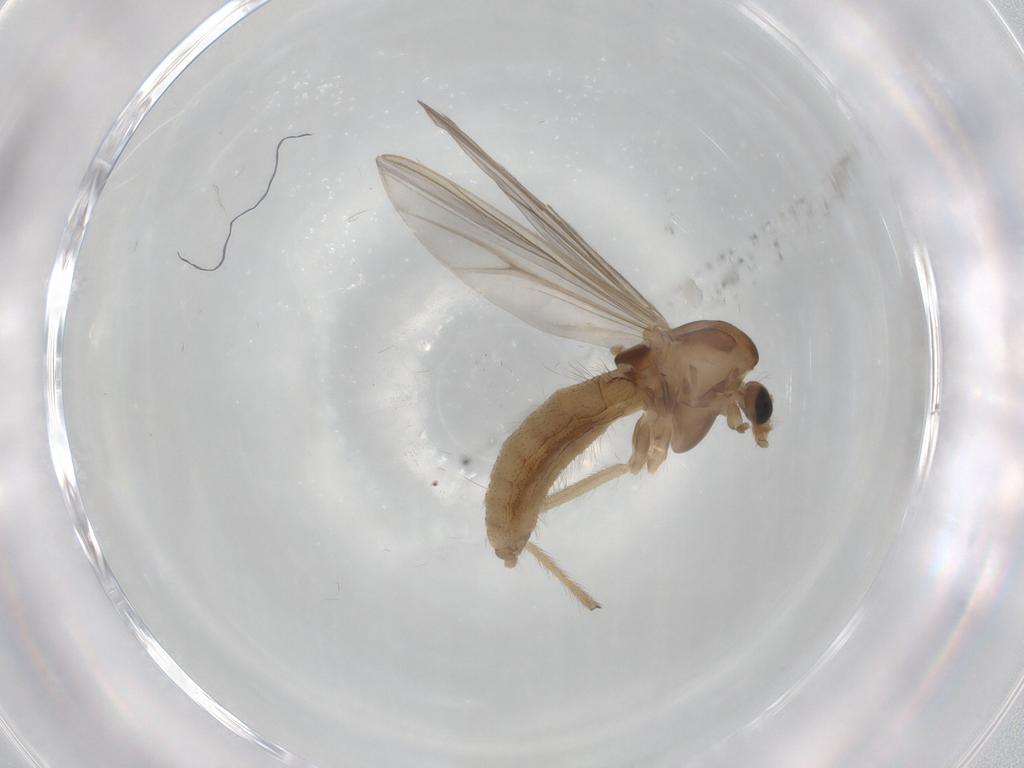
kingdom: Animalia
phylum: Arthropoda
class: Insecta
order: Diptera
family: Chironomidae
